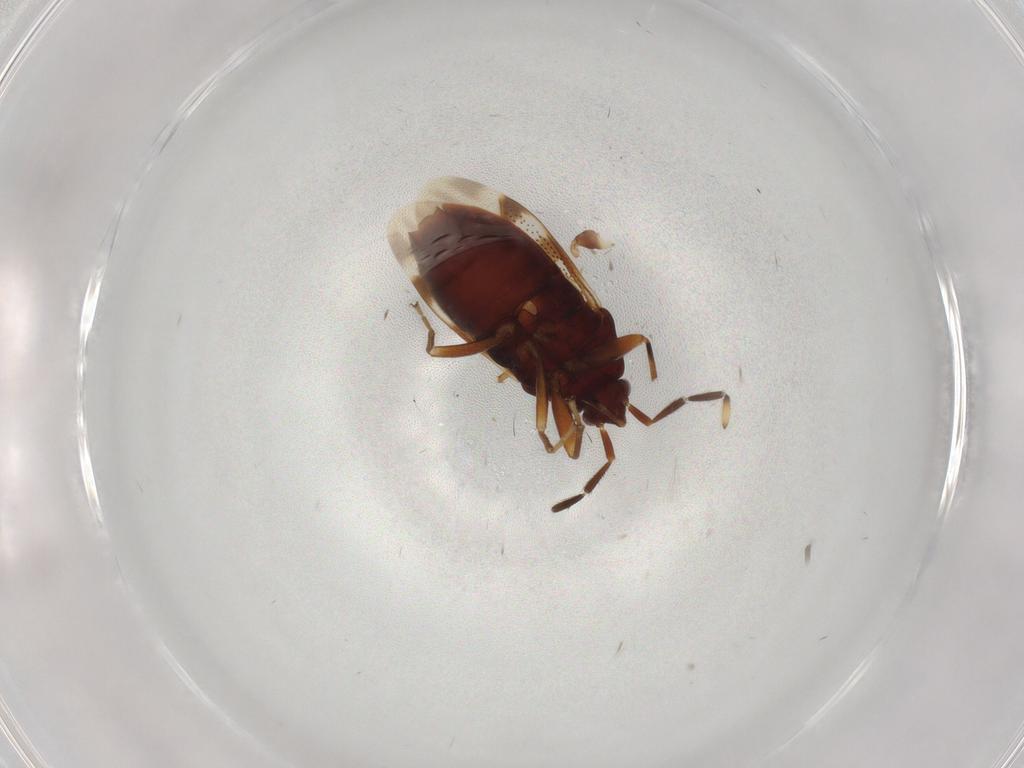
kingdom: Animalia
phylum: Arthropoda
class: Insecta
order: Hemiptera
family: Rhyparochromidae
